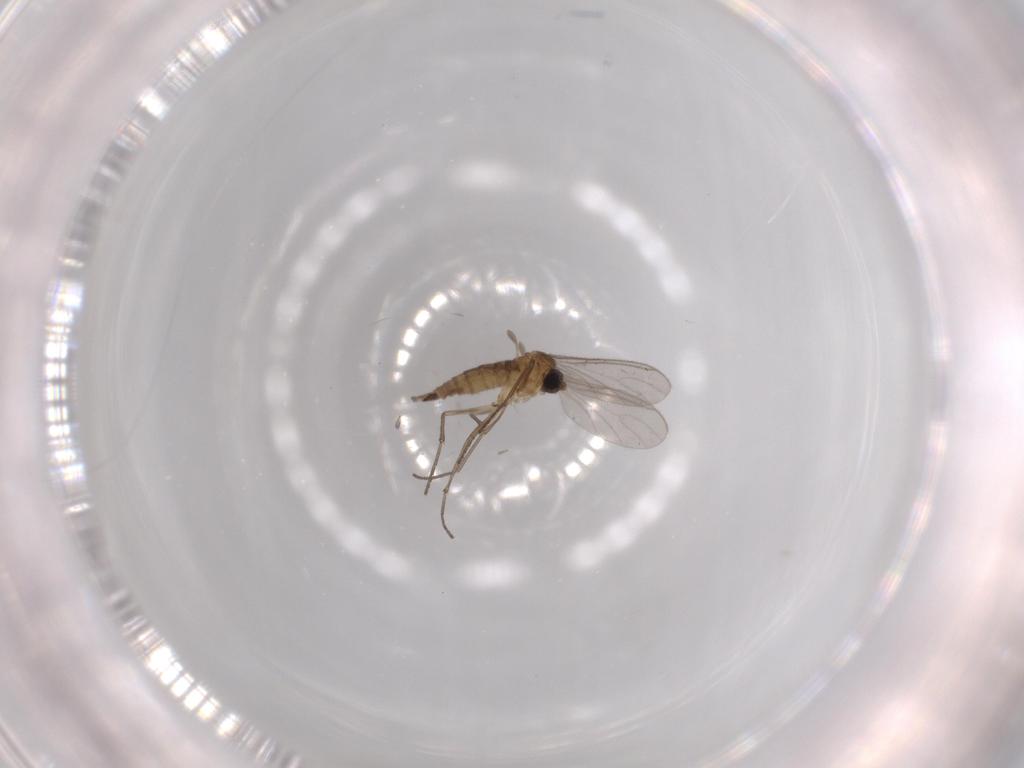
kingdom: Animalia
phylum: Arthropoda
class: Insecta
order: Diptera
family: Sciaridae
